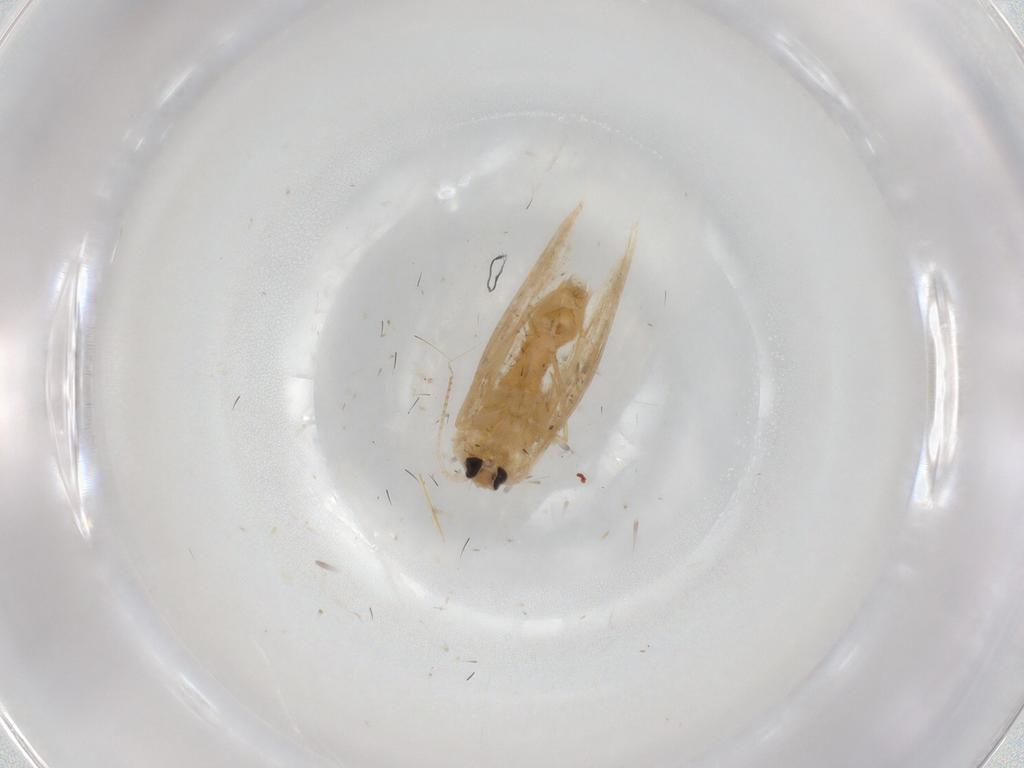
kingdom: Animalia
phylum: Arthropoda
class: Insecta
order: Lepidoptera
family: Noctuidae
